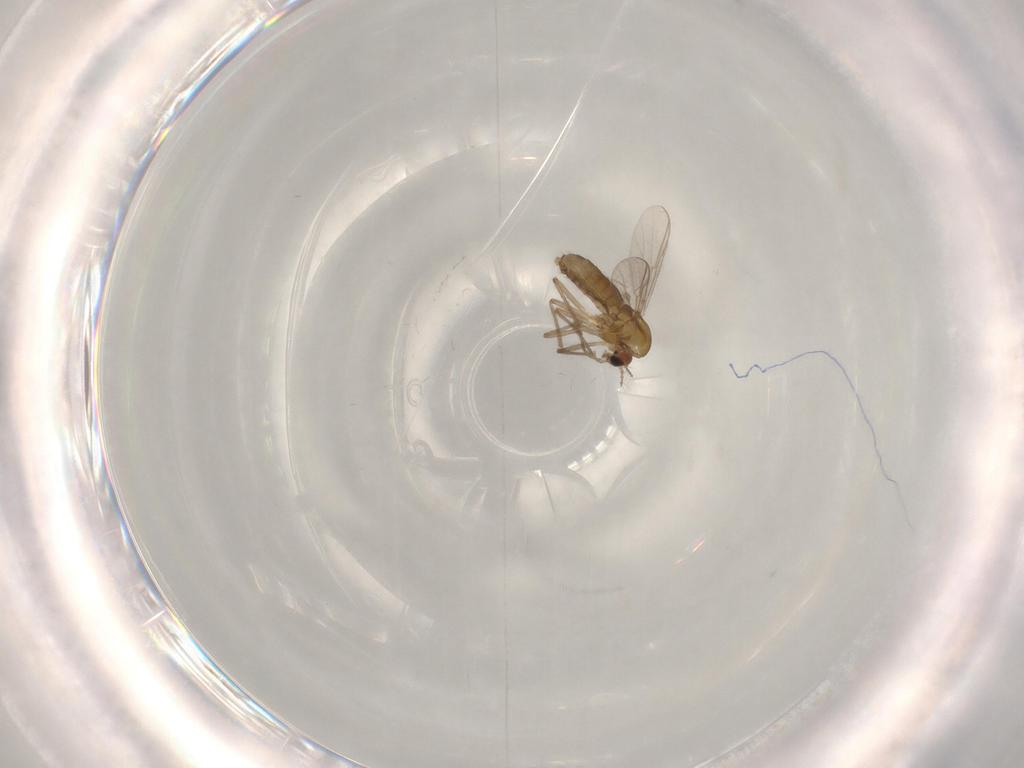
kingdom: Animalia
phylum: Arthropoda
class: Insecta
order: Diptera
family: Chironomidae
